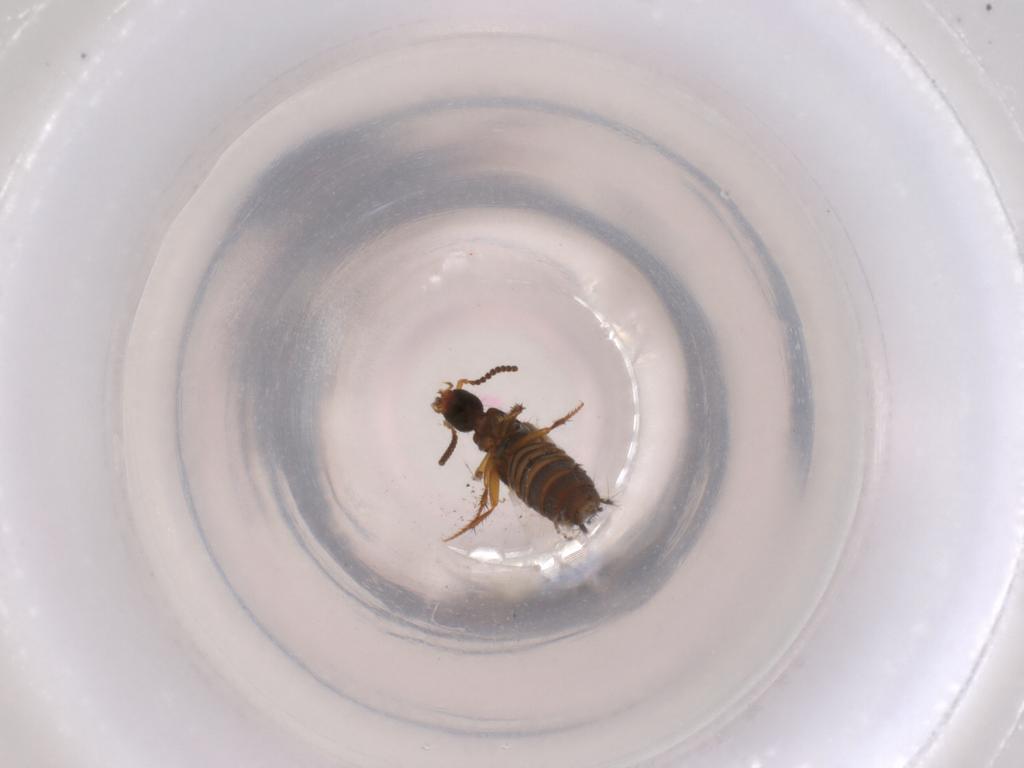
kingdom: Animalia
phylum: Arthropoda
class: Insecta
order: Coleoptera
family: Staphylinidae
